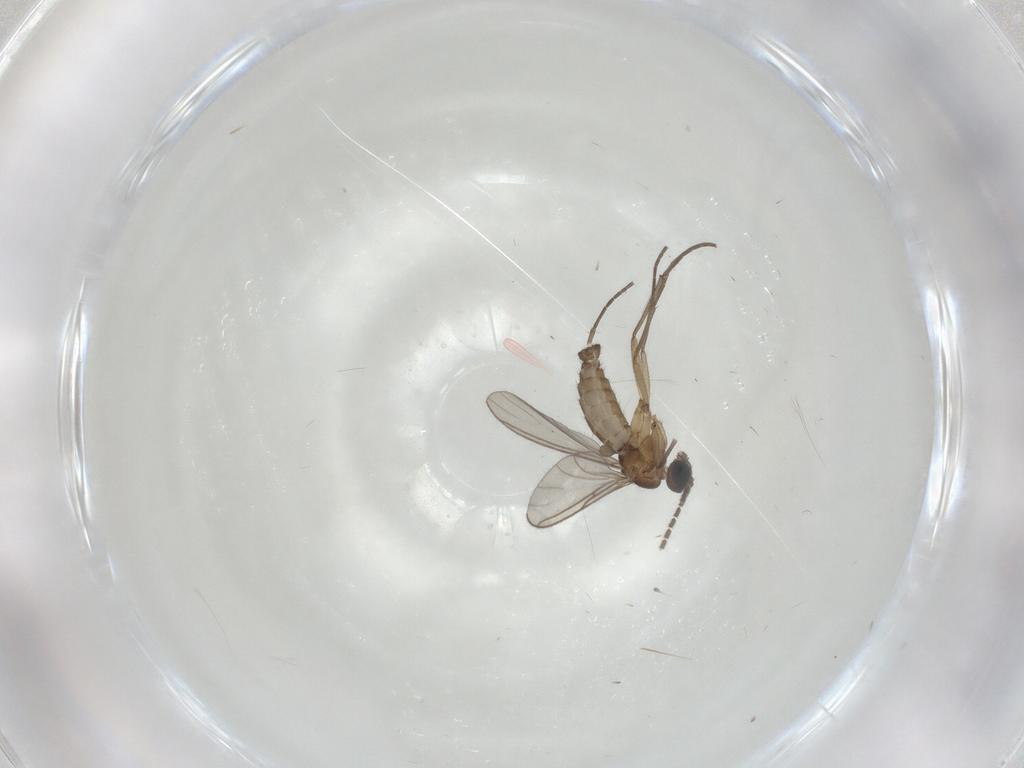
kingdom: Animalia
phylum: Arthropoda
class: Insecta
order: Diptera
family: Sciaridae
